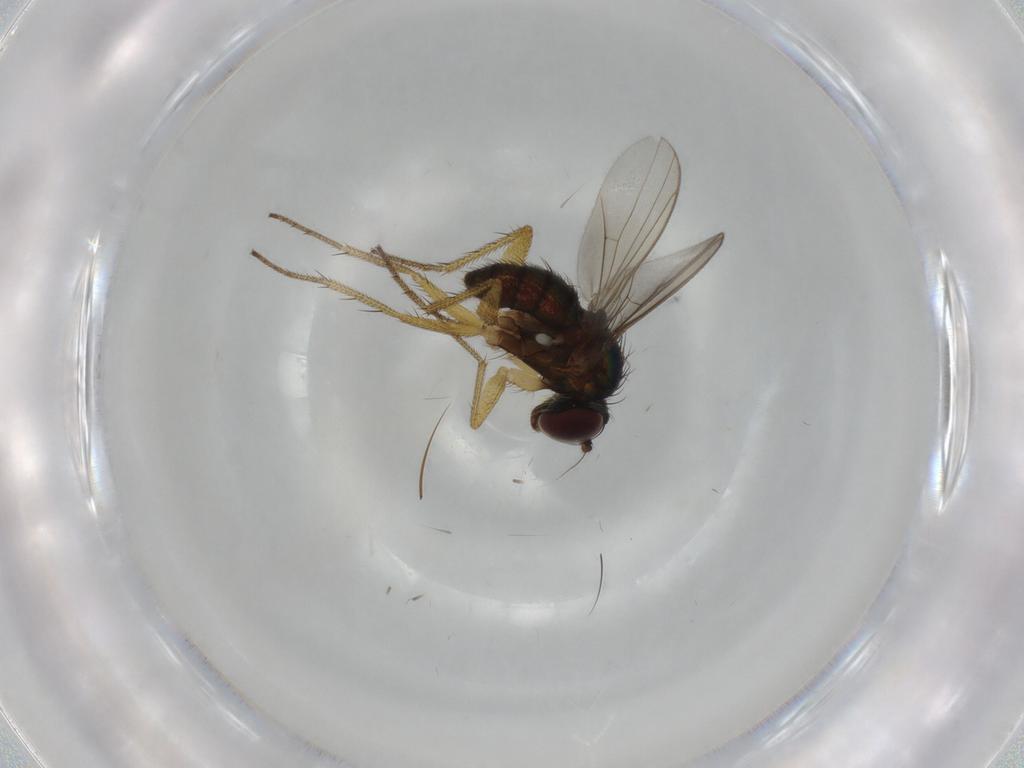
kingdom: Animalia
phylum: Arthropoda
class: Insecta
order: Diptera
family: Dolichopodidae
